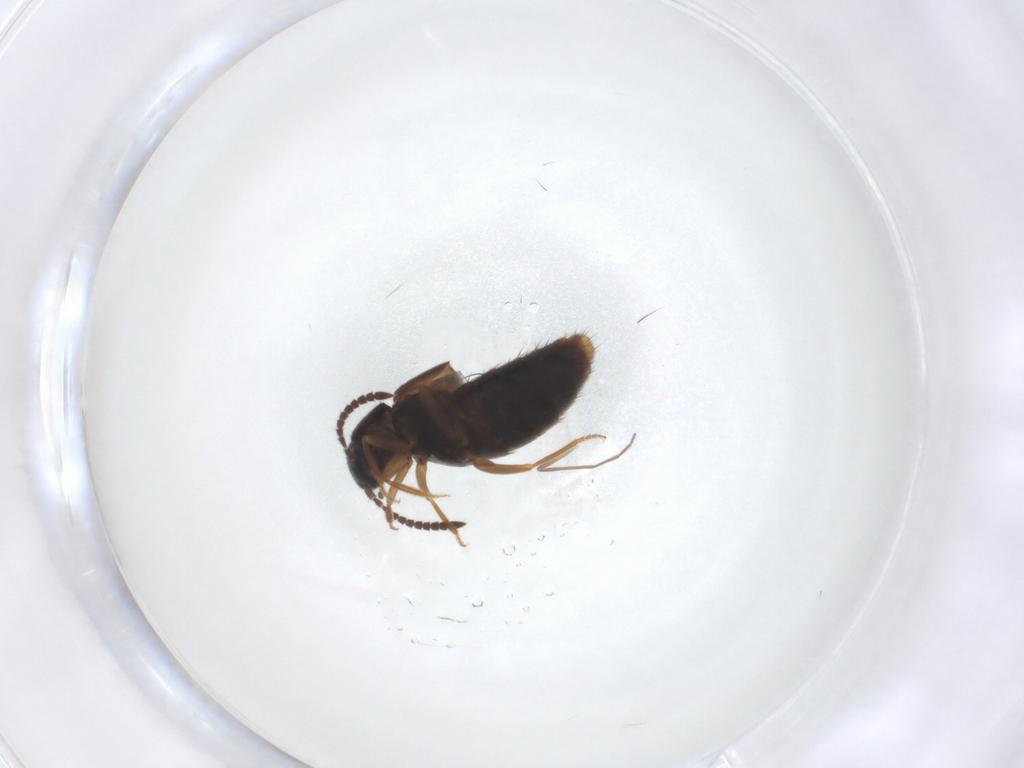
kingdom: Animalia
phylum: Arthropoda
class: Insecta
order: Coleoptera
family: Staphylinidae
